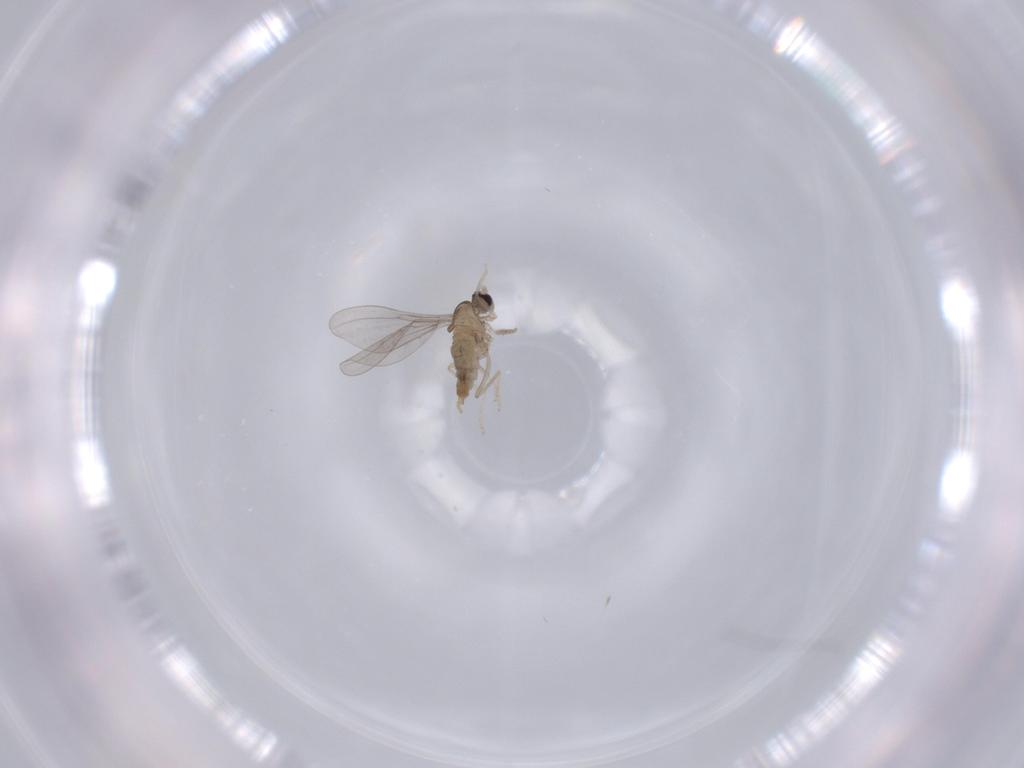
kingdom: Animalia
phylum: Arthropoda
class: Insecta
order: Diptera
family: Cecidomyiidae
